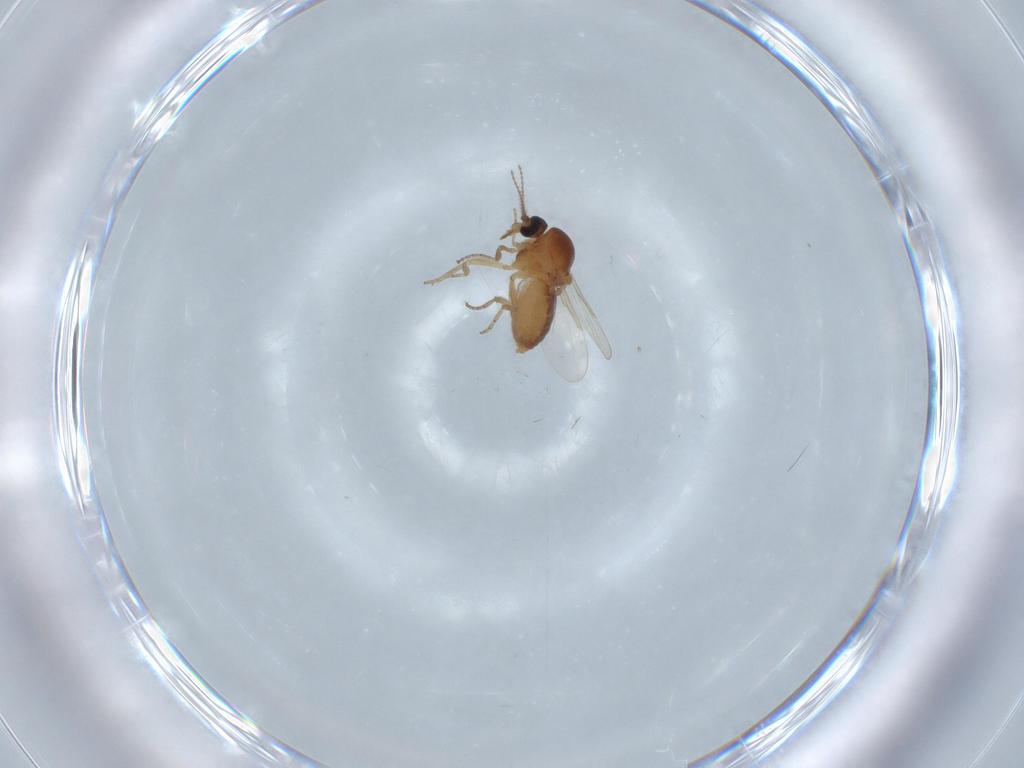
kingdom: Animalia
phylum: Arthropoda
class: Insecta
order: Diptera
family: Ceratopogonidae
